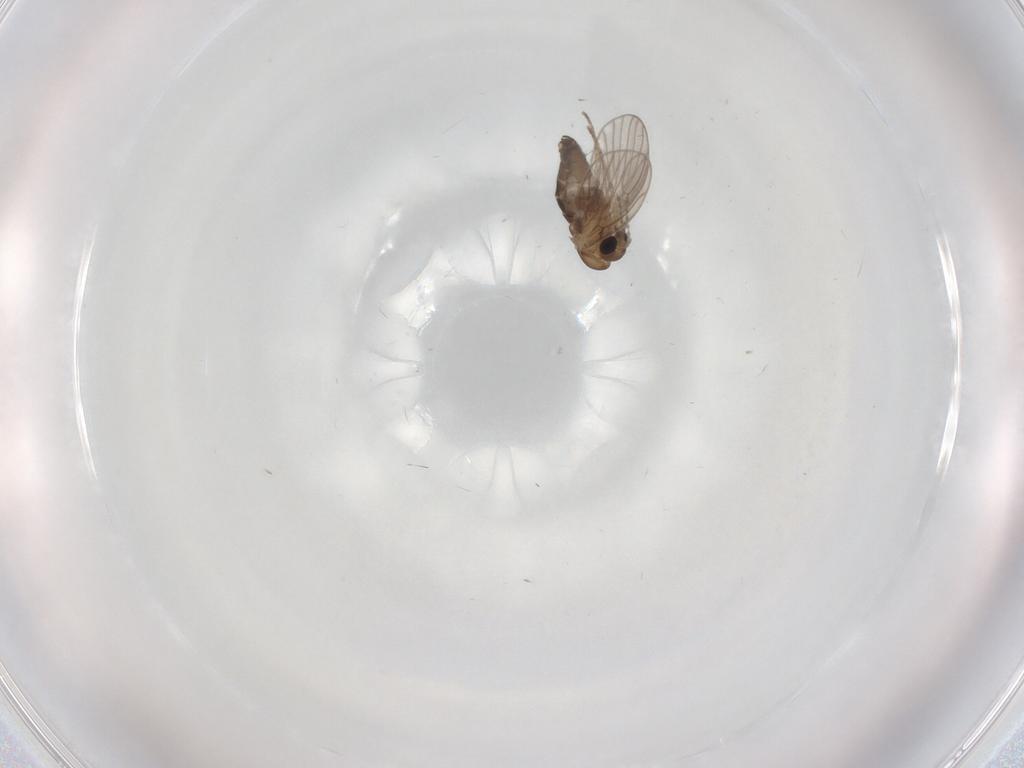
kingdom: Animalia
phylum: Arthropoda
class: Insecta
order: Diptera
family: Psychodidae
